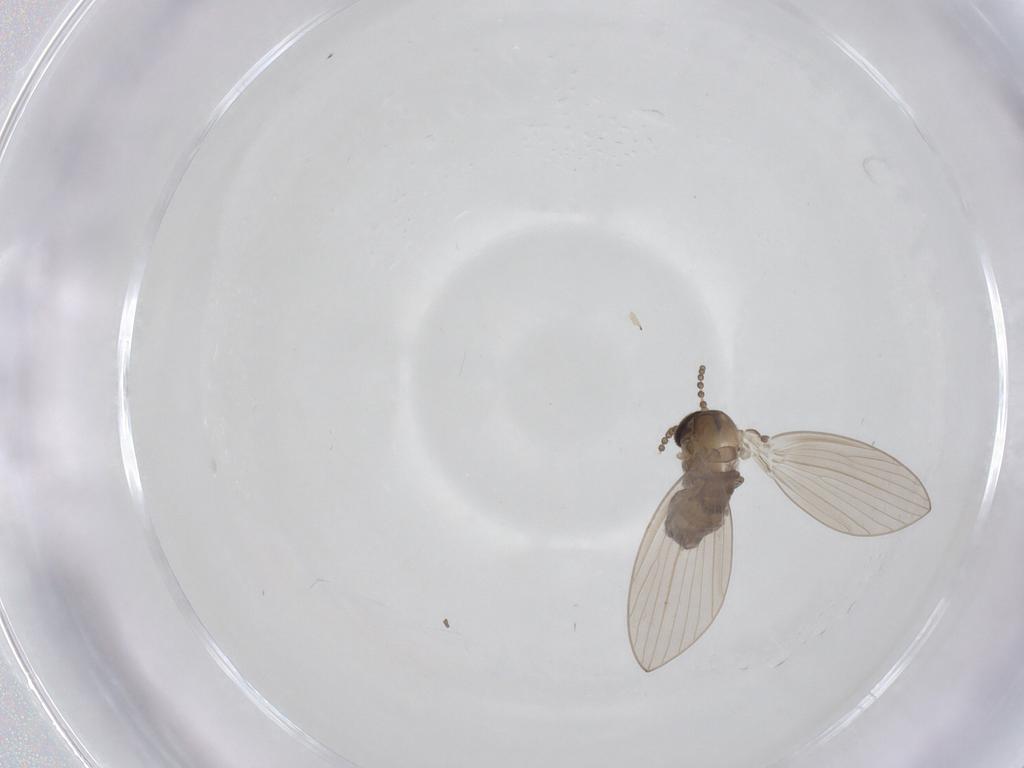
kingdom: Animalia
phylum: Arthropoda
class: Insecta
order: Diptera
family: Psychodidae
